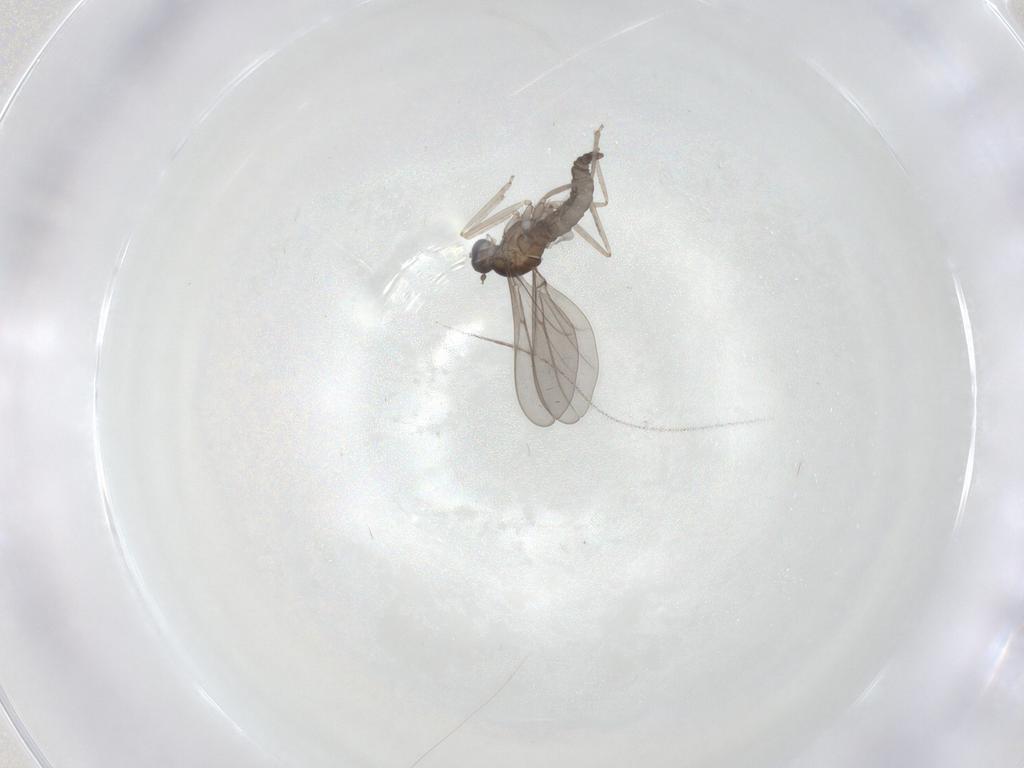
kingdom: Animalia
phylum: Arthropoda
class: Insecta
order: Diptera
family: Cecidomyiidae
